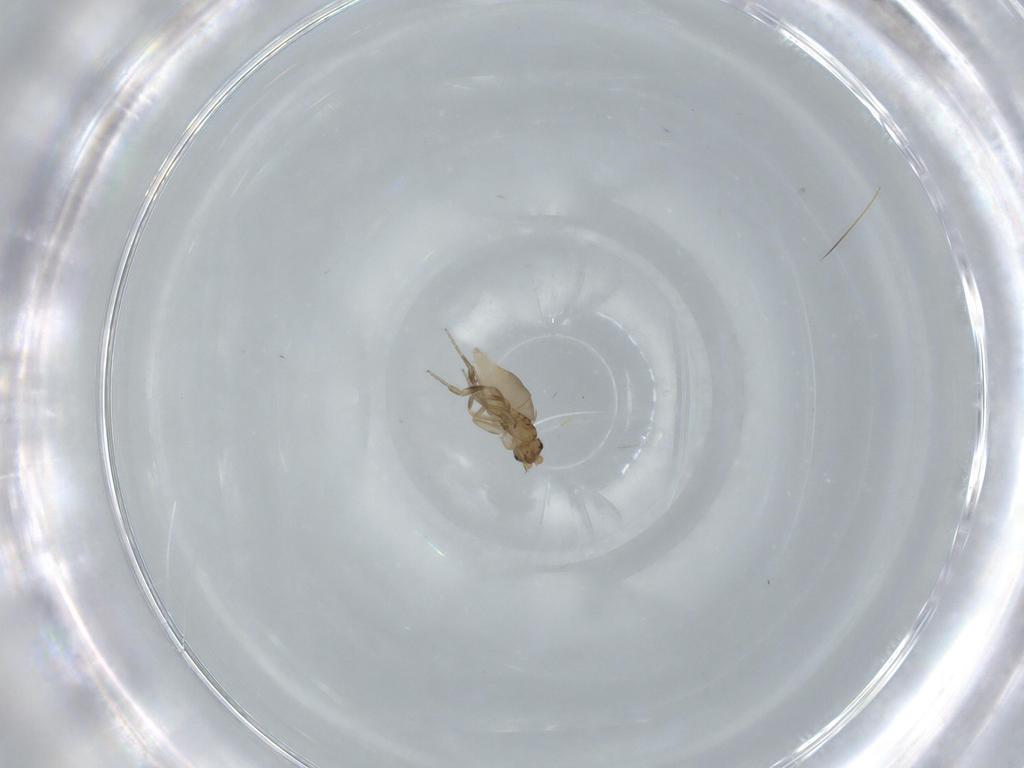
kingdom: Animalia
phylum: Arthropoda
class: Insecta
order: Diptera
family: Phoridae
